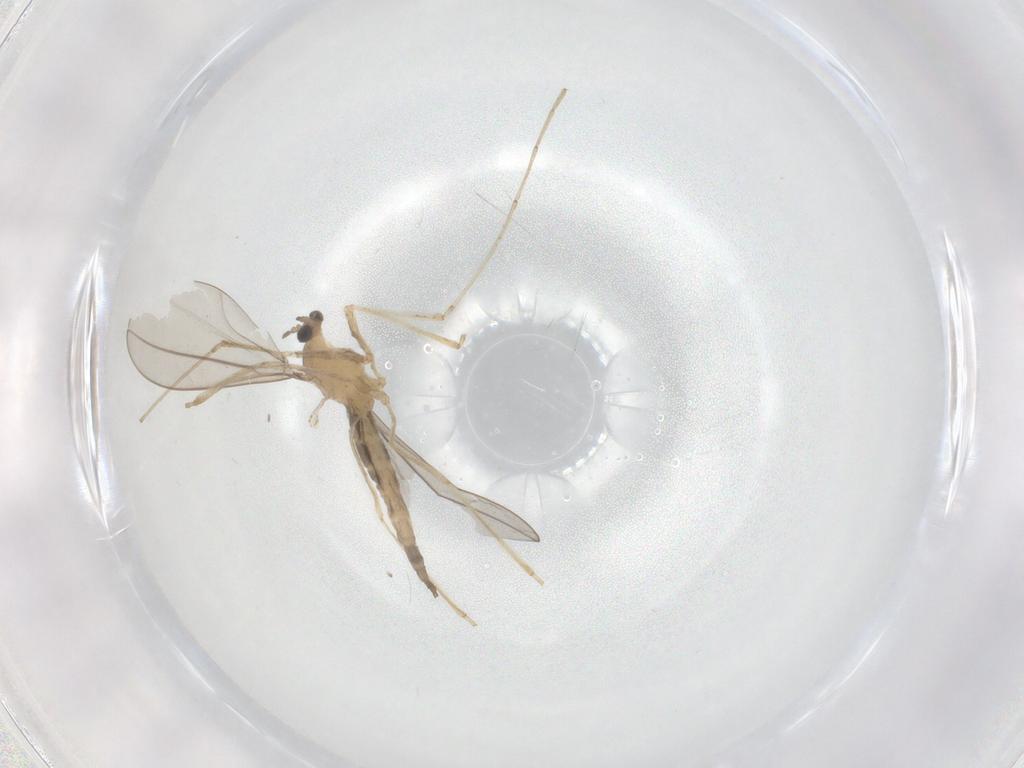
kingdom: Animalia
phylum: Arthropoda
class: Insecta
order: Diptera
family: Cecidomyiidae
